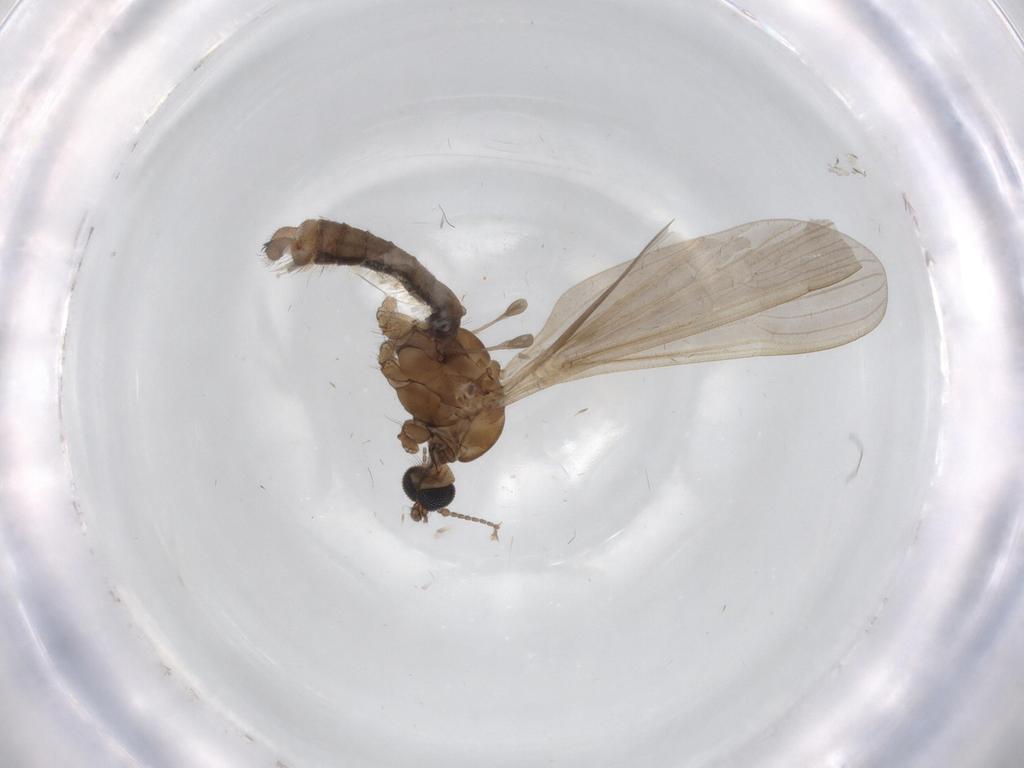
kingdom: Animalia
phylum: Arthropoda
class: Insecta
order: Diptera
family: Limoniidae
